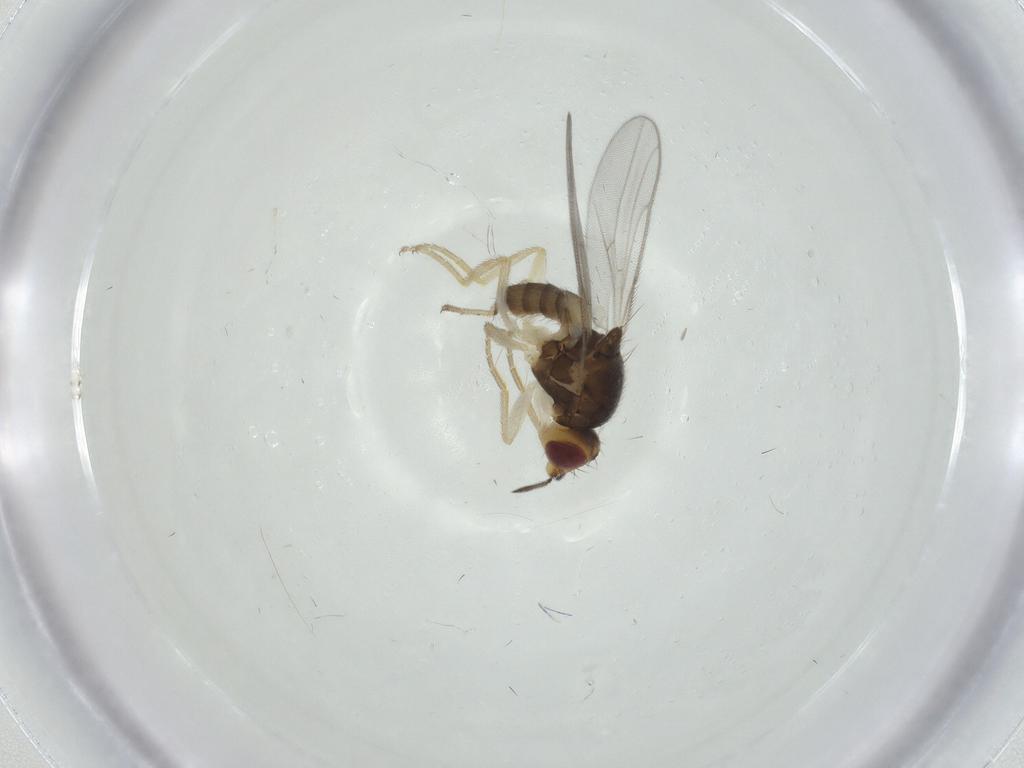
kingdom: Animalia
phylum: Arthropoda
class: Insecta
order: Diptera
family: Chloropidae
